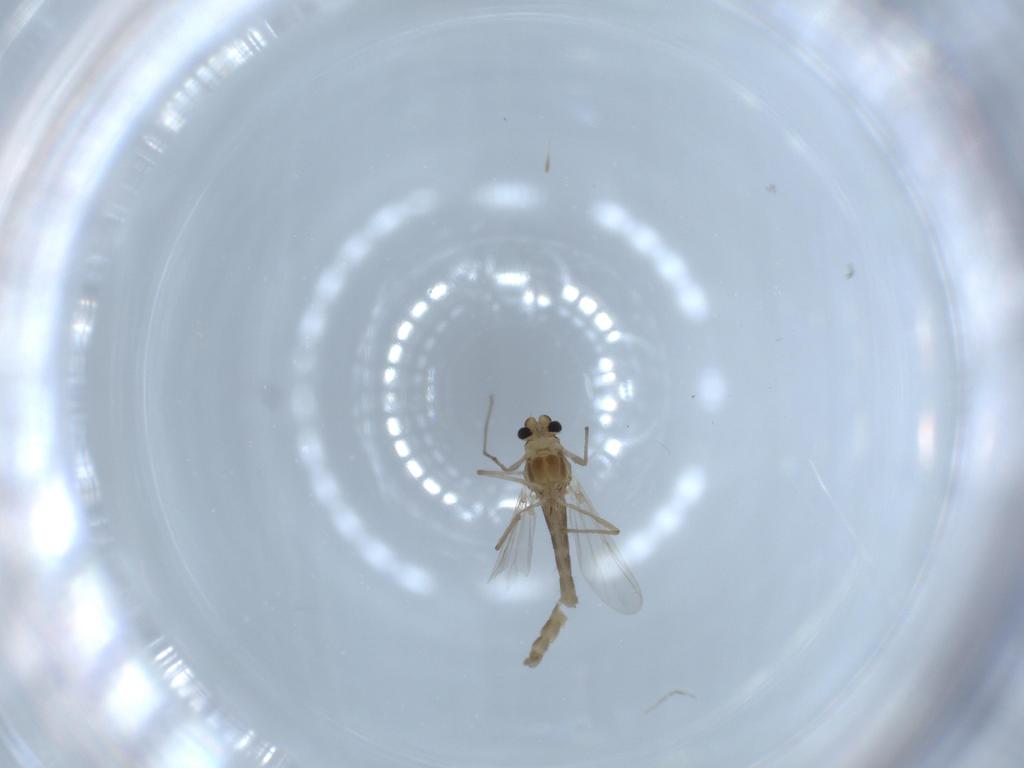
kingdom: Animalia
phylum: Arthropoda
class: Insecta
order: Diptera
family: Chironomidae
